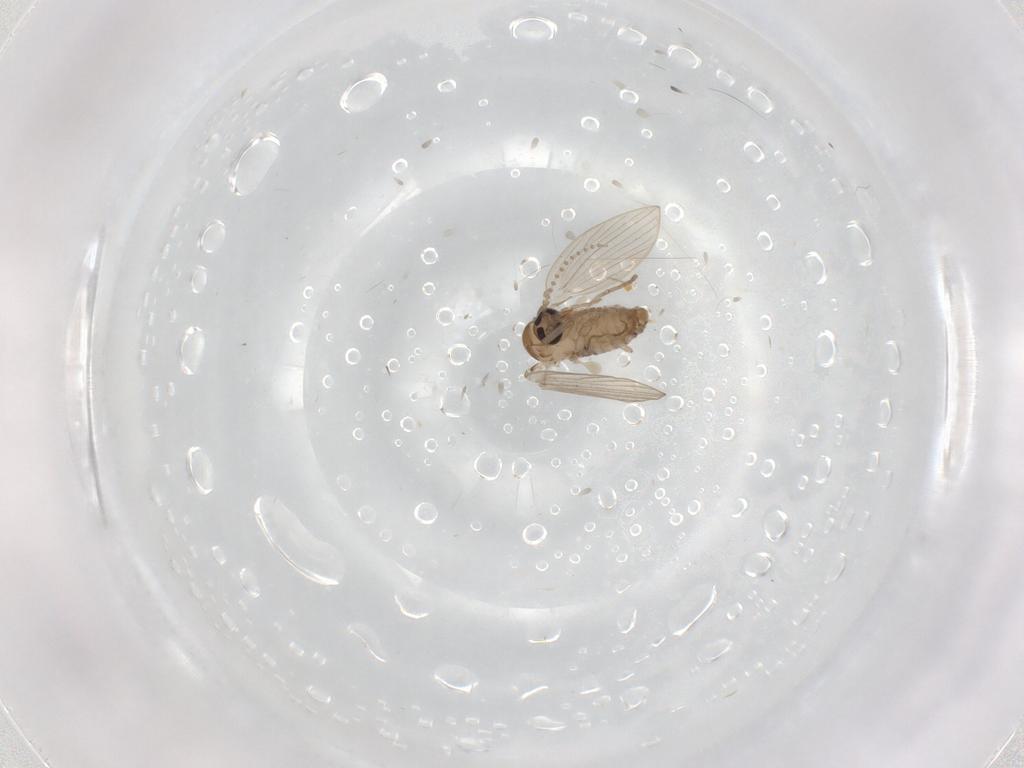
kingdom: Animalia
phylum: Arthropoda
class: Insecta
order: Diptera
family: Psychodidae
